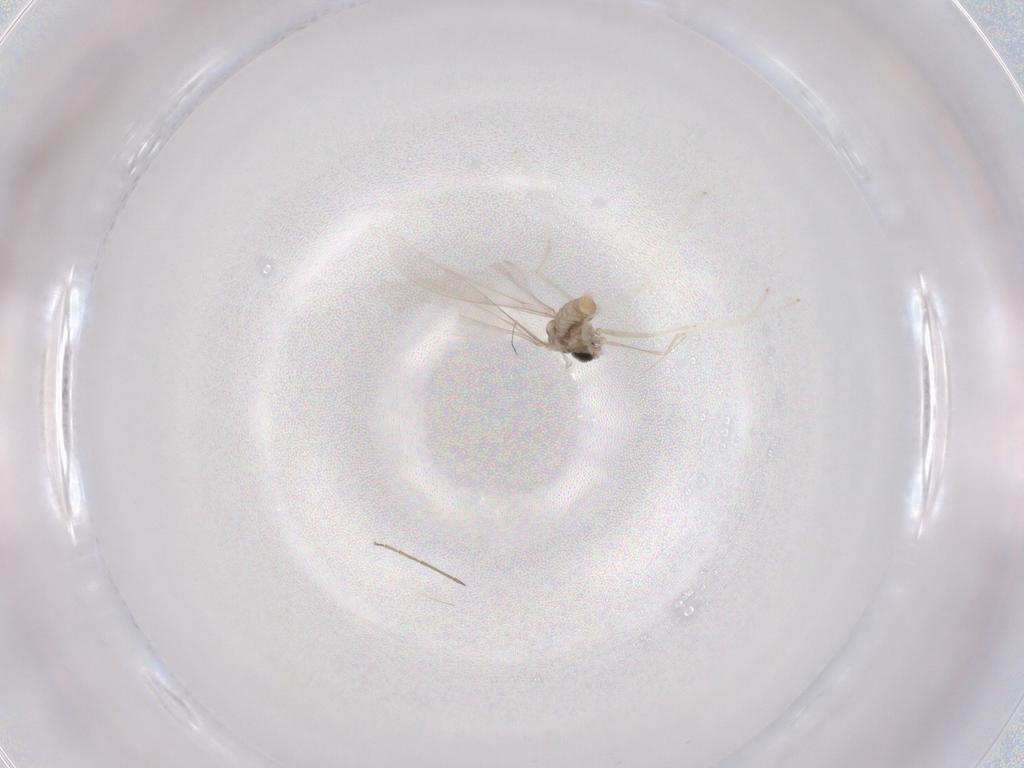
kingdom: Animalia
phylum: Arthropoda
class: Insecta
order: Diptera
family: Cecidomyiidae
